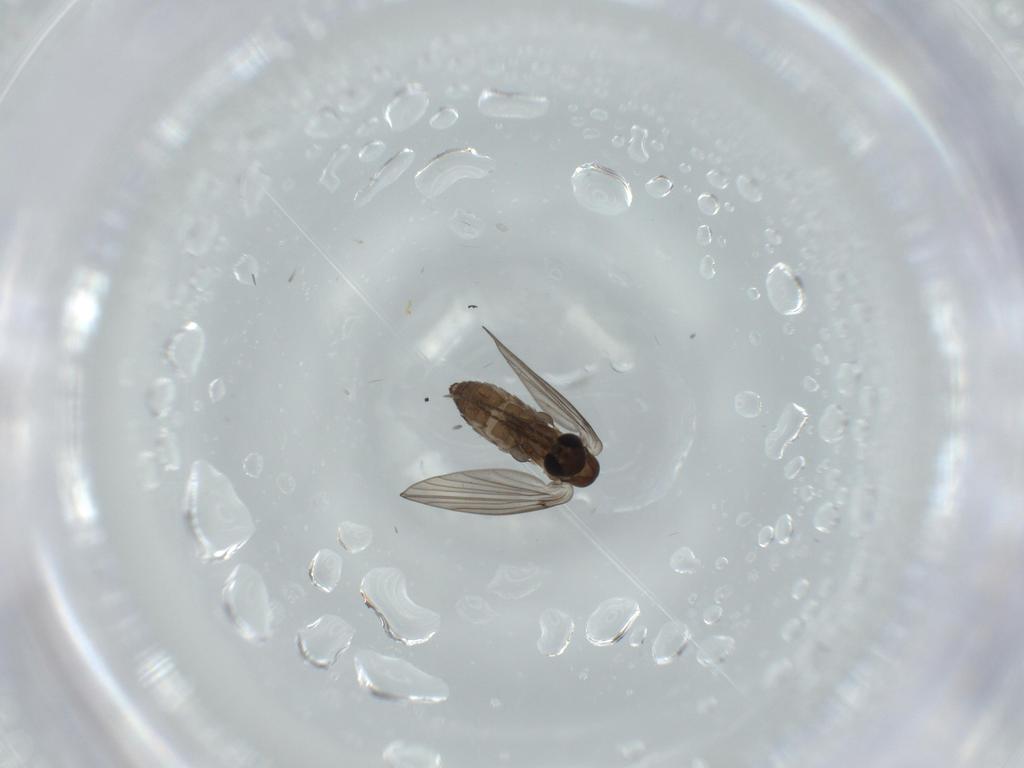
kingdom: Animalia
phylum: Arthropoda
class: Insecta
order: Diptera
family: Psychodidae
